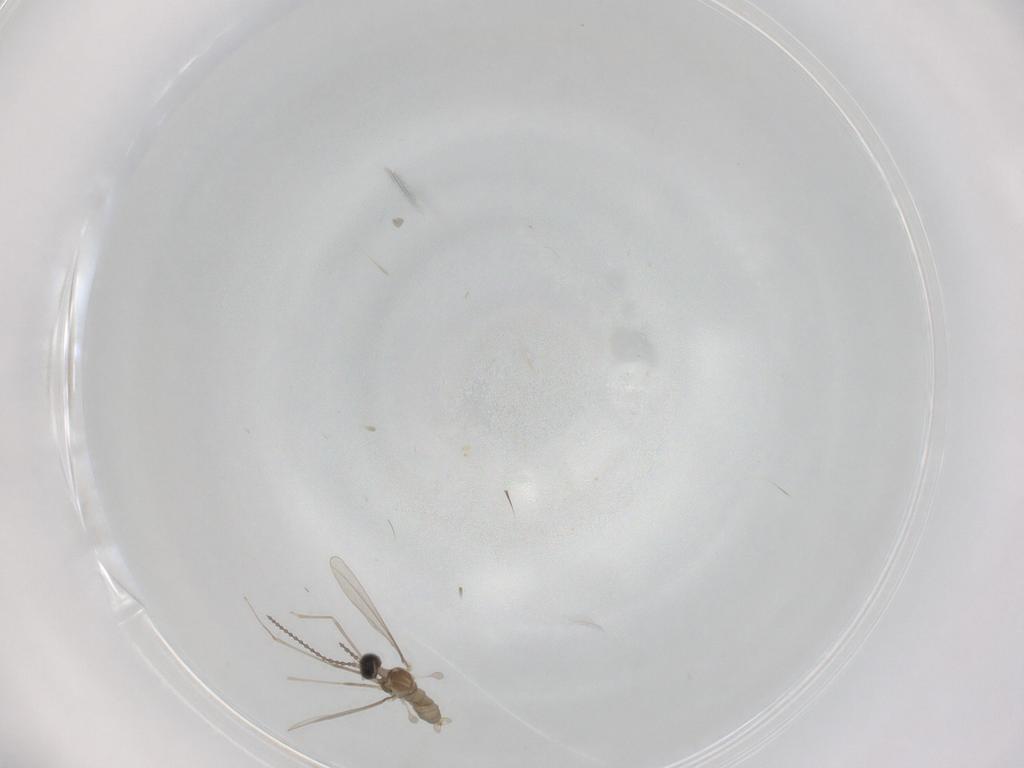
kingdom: Animalia
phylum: Arthropoda
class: Insecta
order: Diptera
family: Cecidomyiidae
